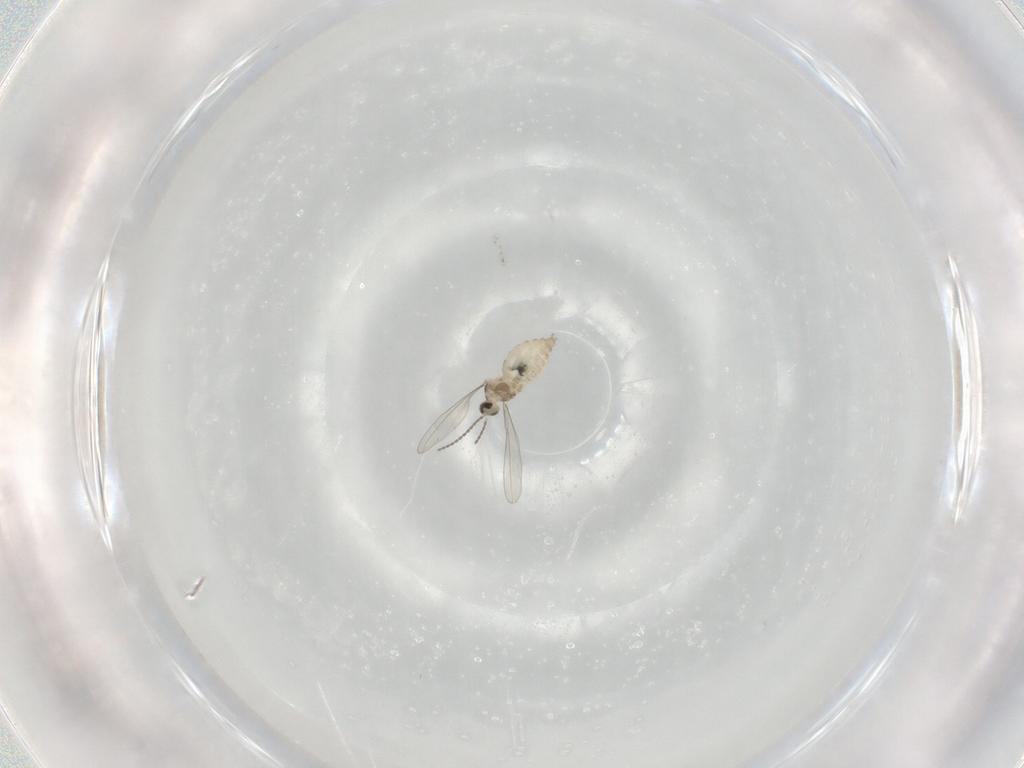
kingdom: Animalia
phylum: Arthropoda
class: Insecta
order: Diptera
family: Cecidomyiidae
